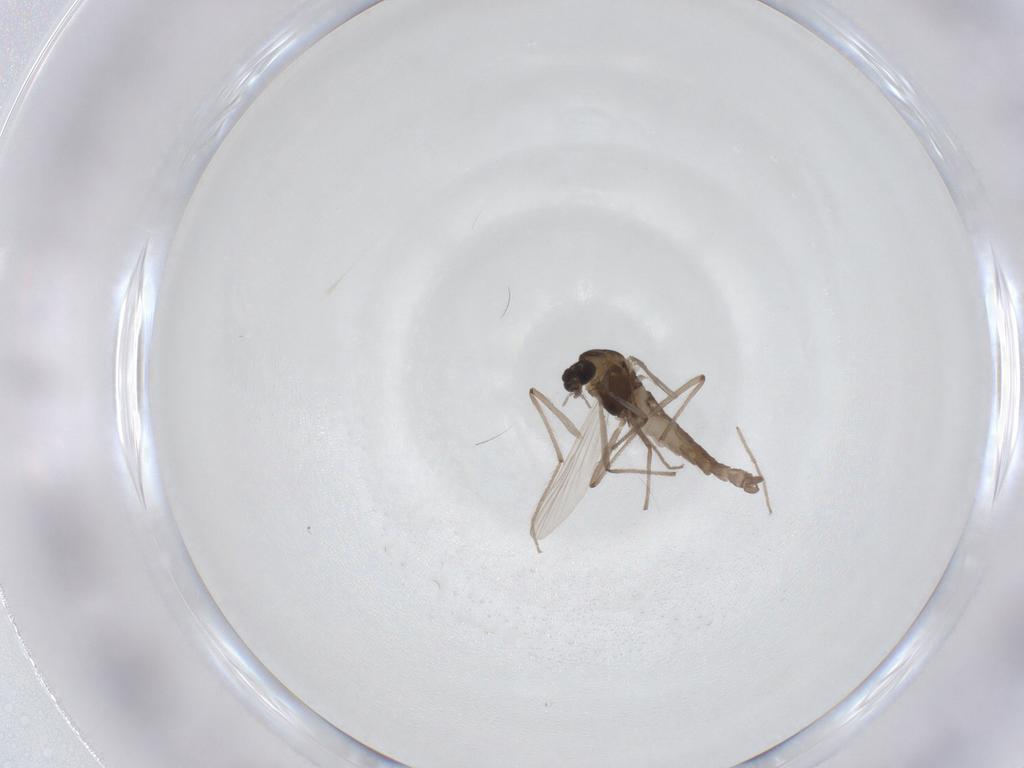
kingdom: Animalia
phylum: Arthropoda
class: Insecta
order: Diptera
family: Chironomidae
